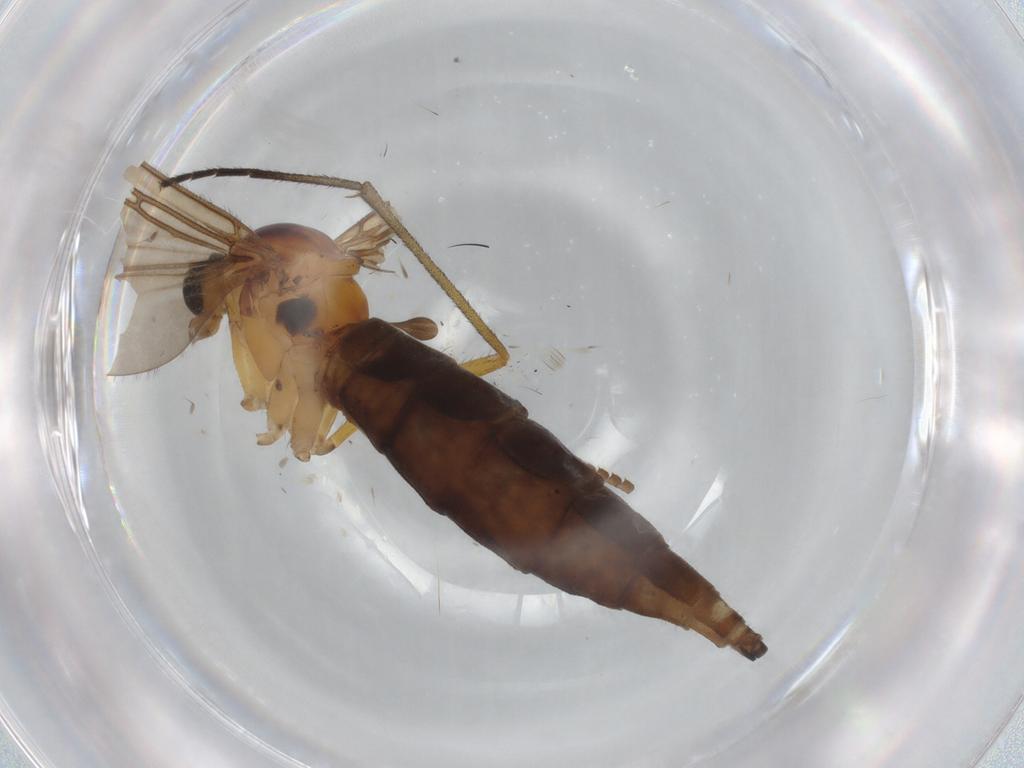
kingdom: Animalia
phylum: Arthropoda
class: Insecta
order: Diptera
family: Sciaridae
